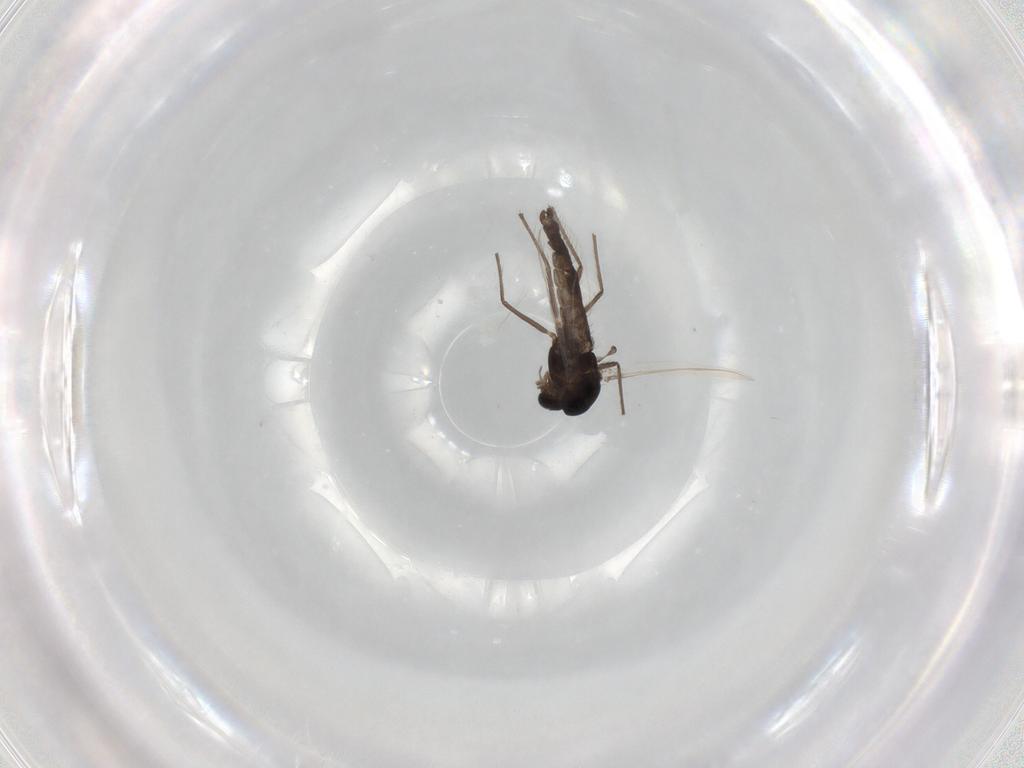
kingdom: Animalia
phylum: Arthropoda
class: Insecta
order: Diptera
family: Chironomidae
